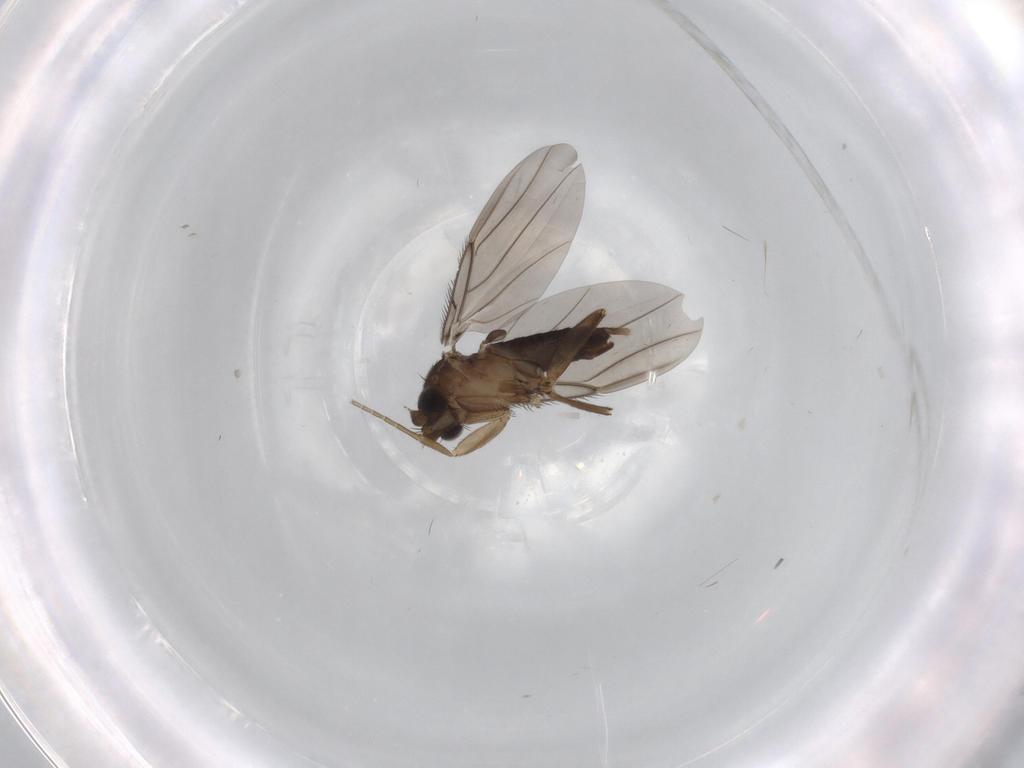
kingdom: Animalia
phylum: Arthropoda
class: Insecta
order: Diptera
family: Phoridae
